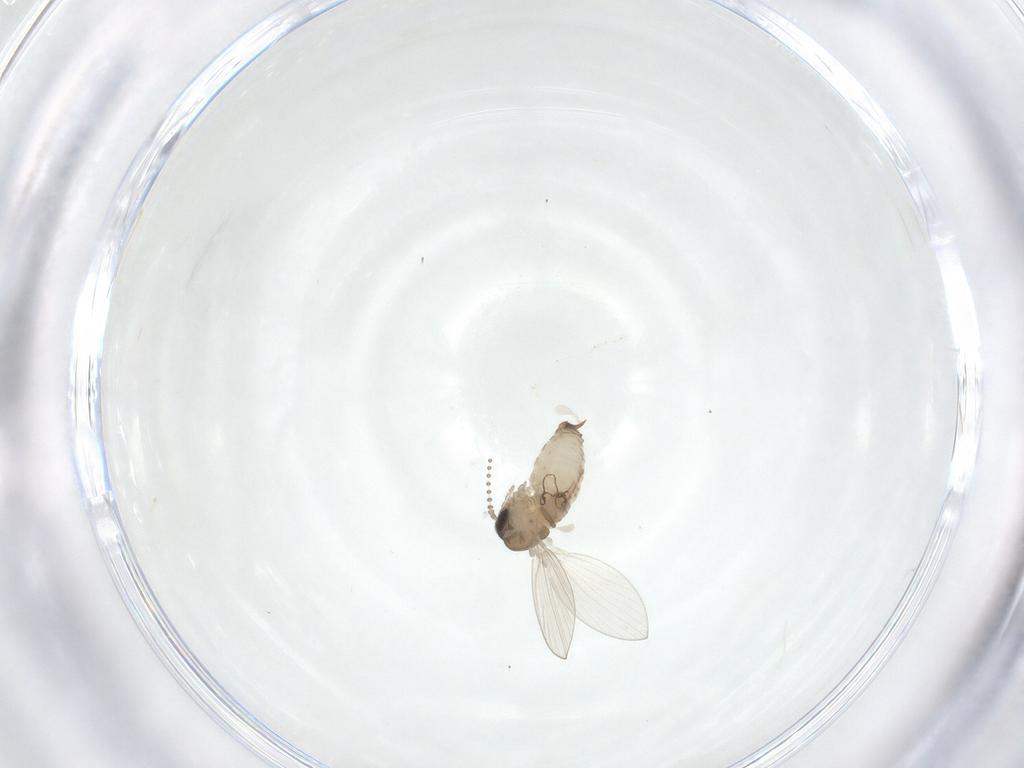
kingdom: Animalia
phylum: Arthropoda
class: Insecta
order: Diptera
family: Psychodidae
